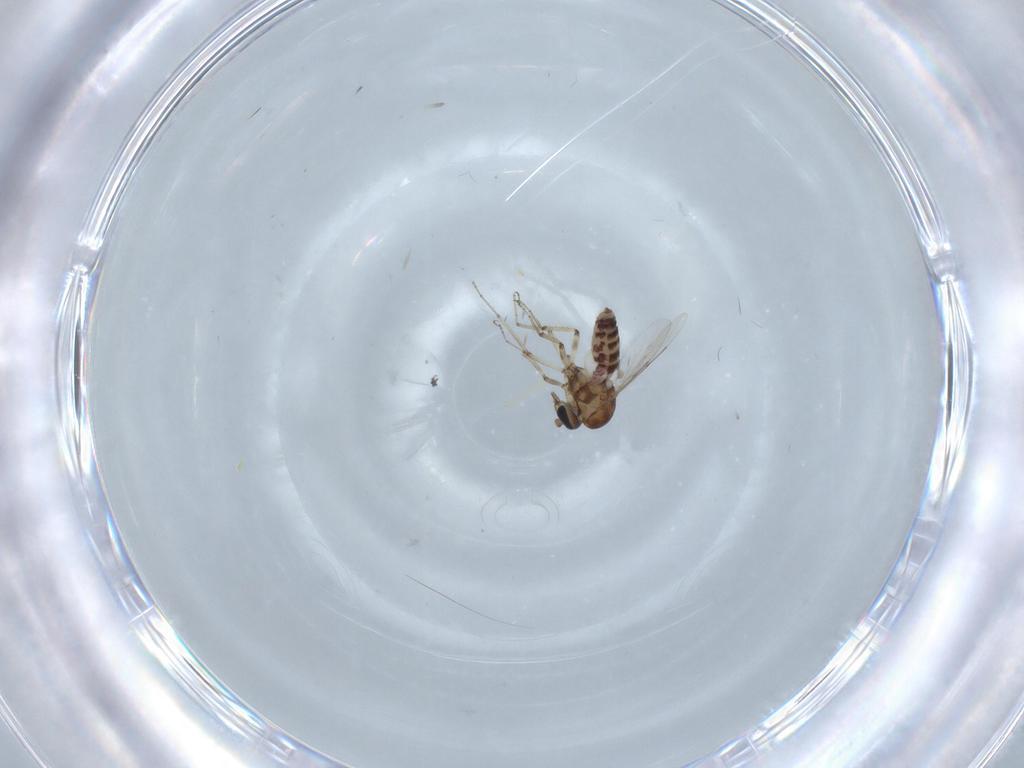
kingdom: Animalia
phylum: Arthropoda
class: Insecta
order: Diptera
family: Ceratopogonidae
